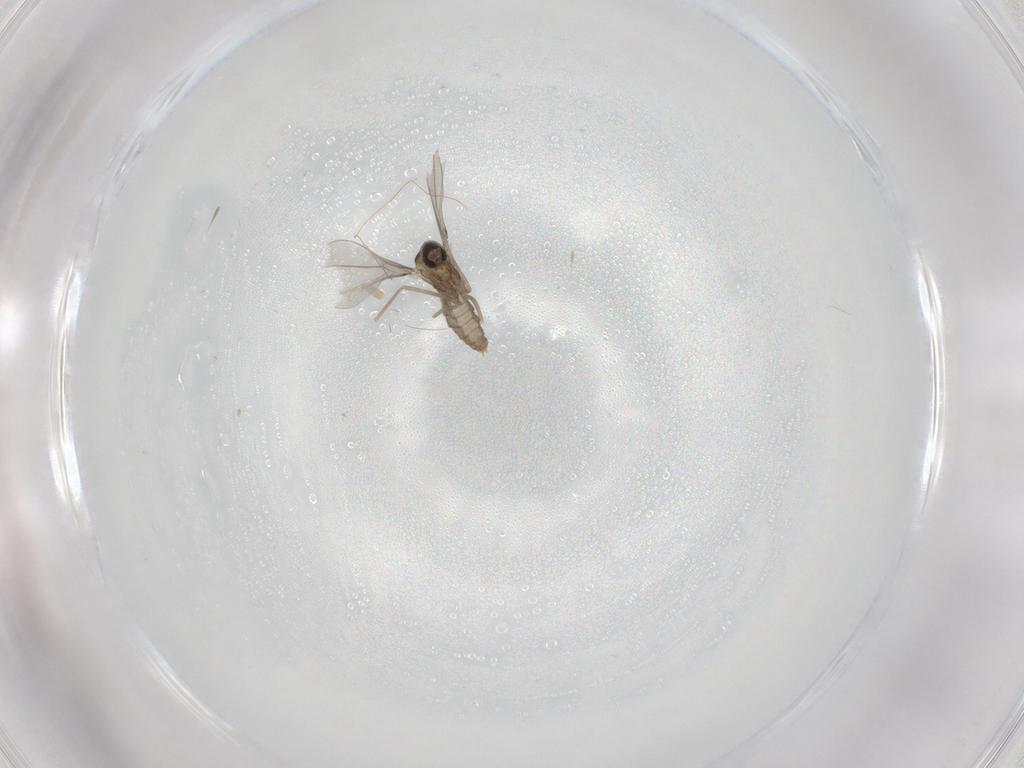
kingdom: Animalia
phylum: Arthropoda
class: Insecta
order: Diptera
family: Cecidomyiidae
